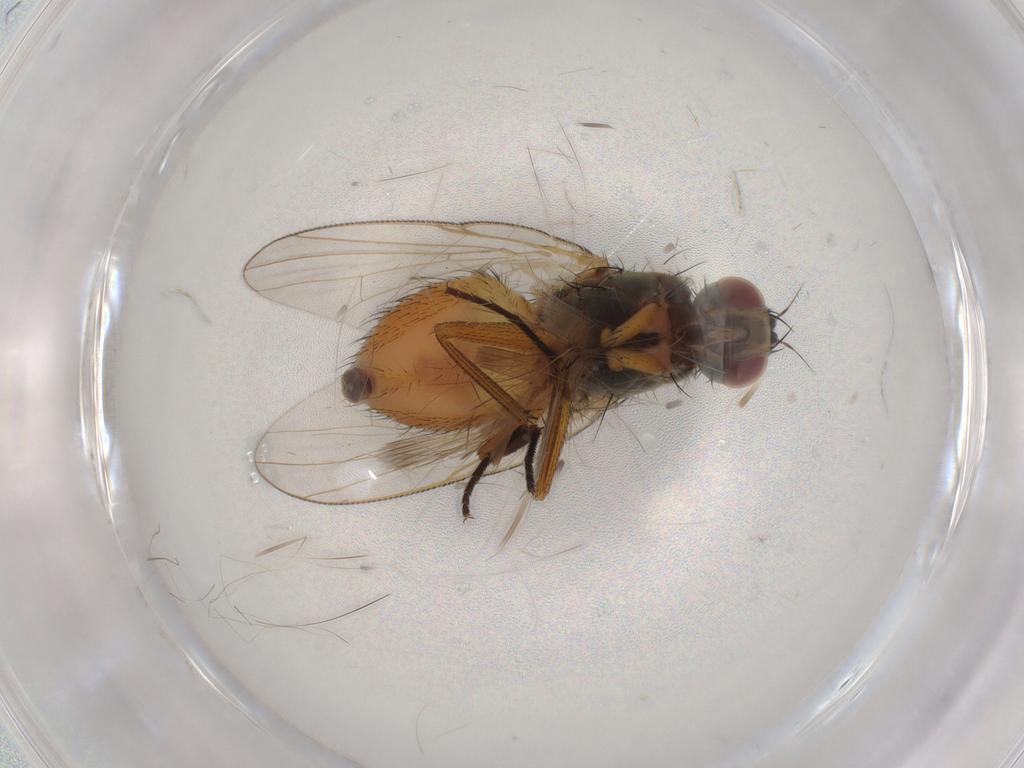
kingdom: Animalia
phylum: Arthropoda
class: Insecta
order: Diptera
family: Muscidae
